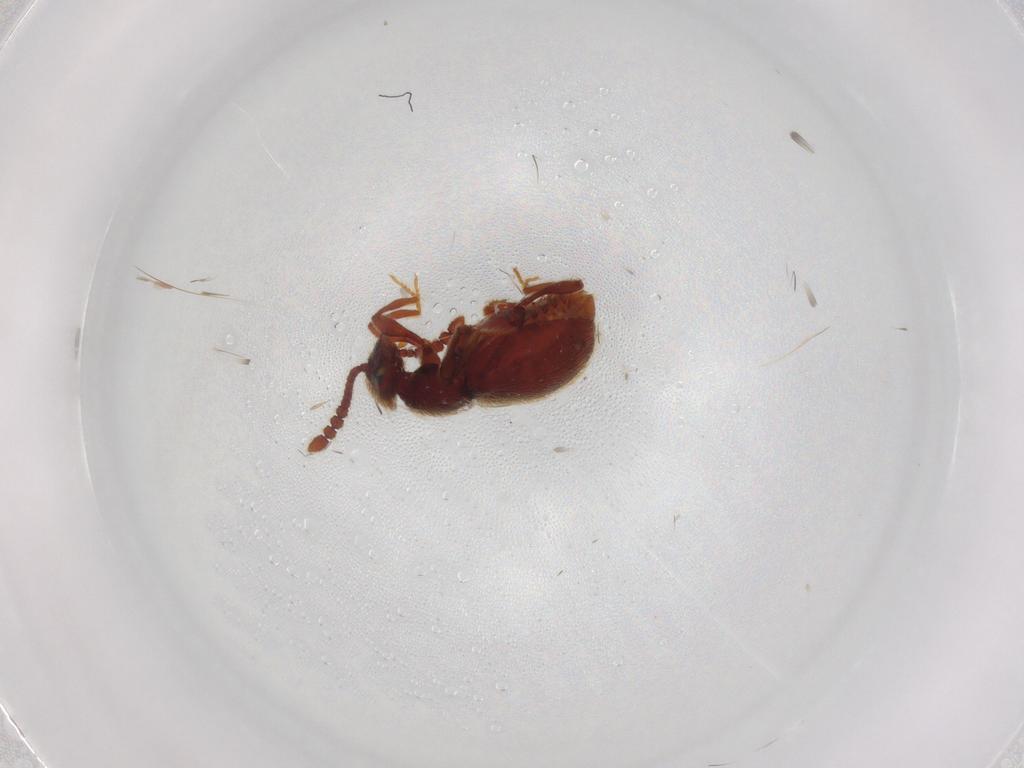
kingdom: Animalia
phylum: Arthropoda
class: Insecta
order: Coleoptera
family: Staphylinidae
